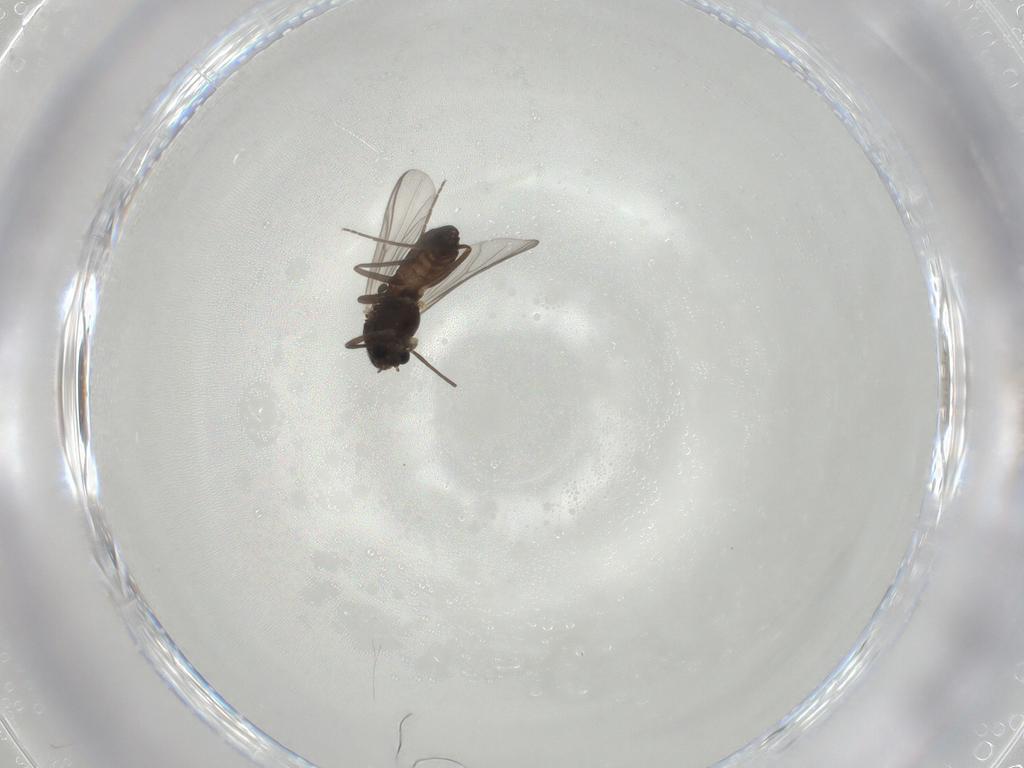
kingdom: Animalia
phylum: Arthropoda
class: Insecta
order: Diptera
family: Chironomidae
